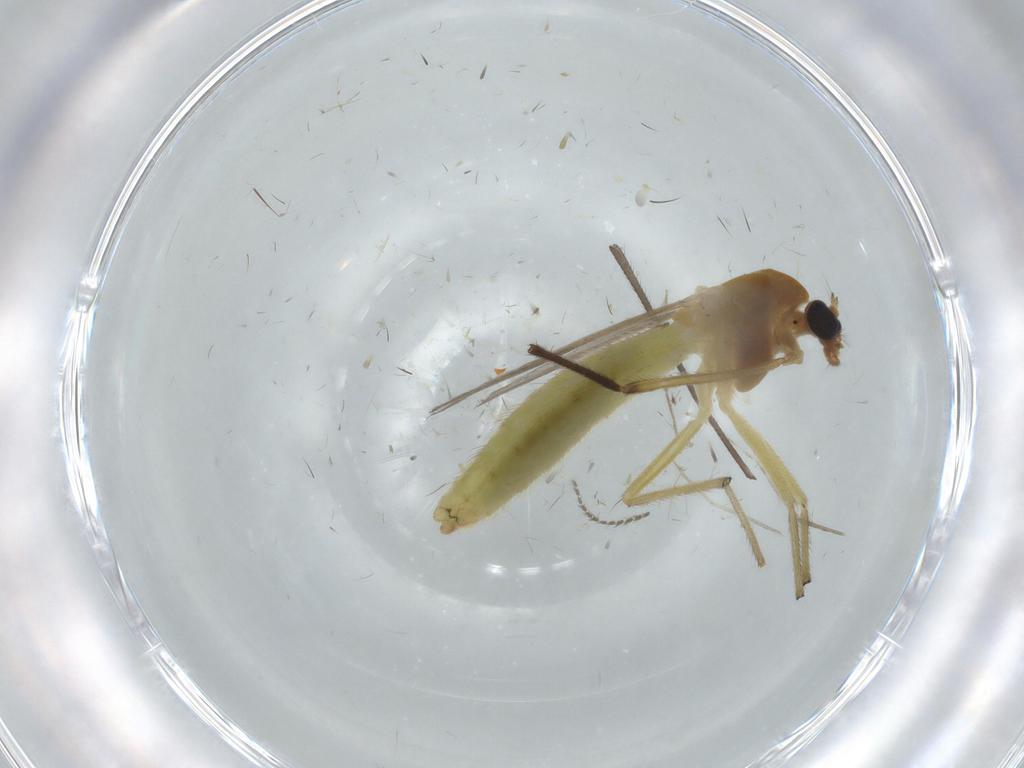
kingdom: Animalia
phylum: Arthropoda
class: Insecta
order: Diptera
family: Chironomidae
